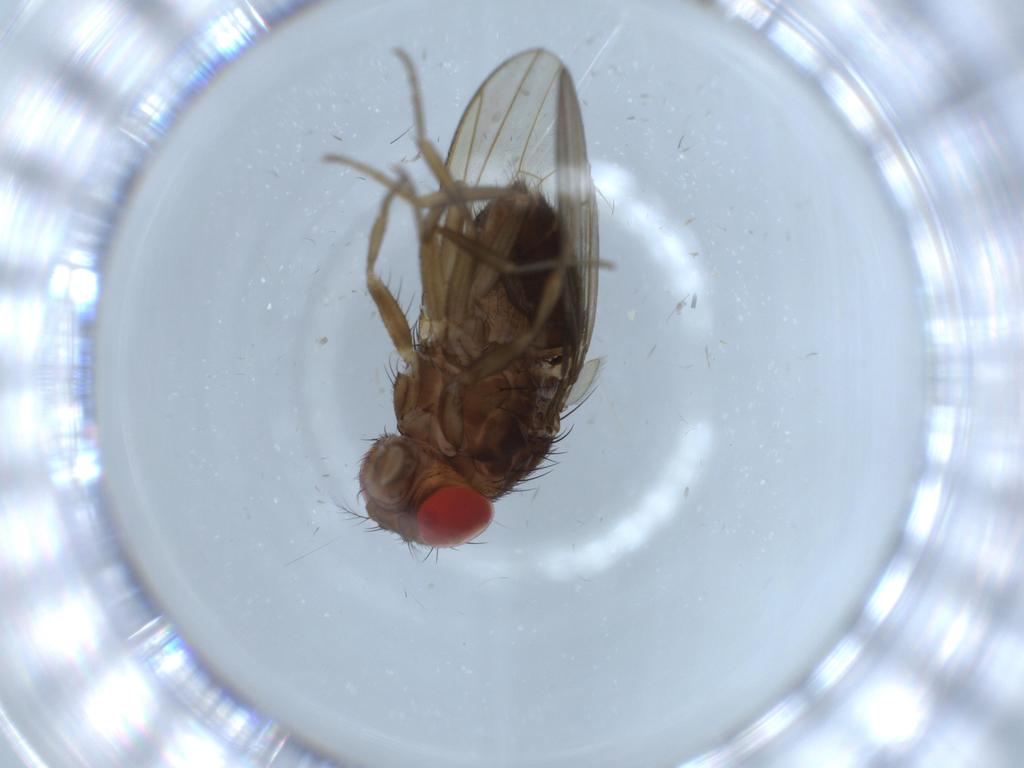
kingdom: Animalia
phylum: Arthropoda
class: Insecta
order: Diptera
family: Drosophilidae
